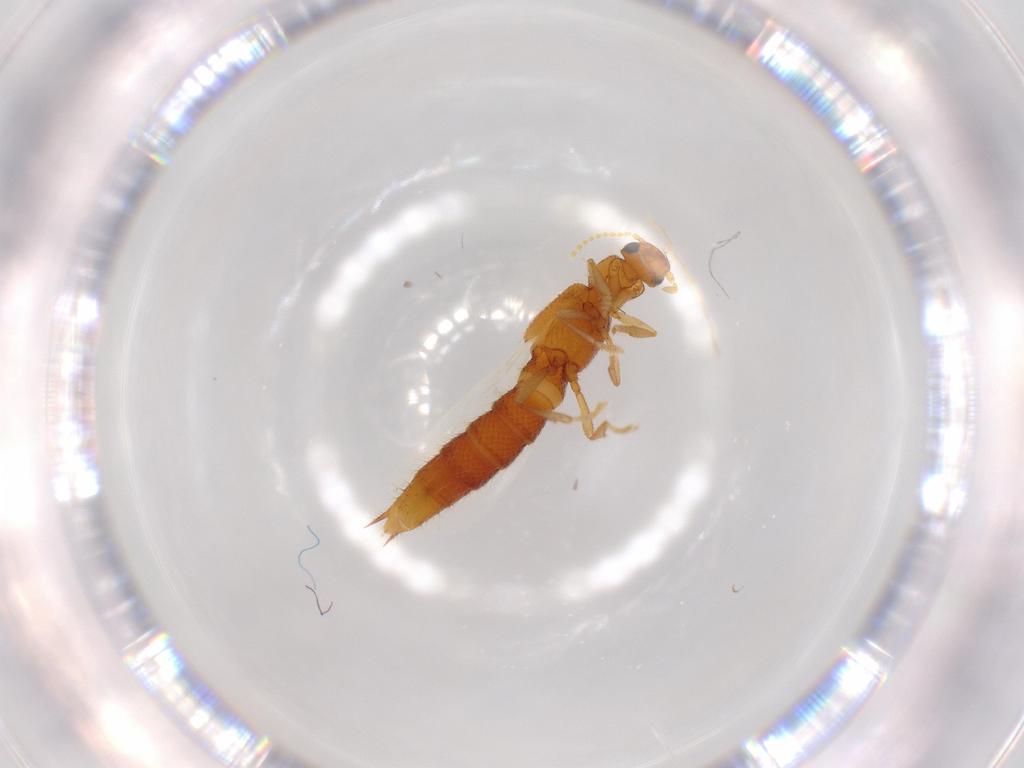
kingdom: Animalia
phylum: Arthropoda
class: Insecta
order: Coleoptera
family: Staphylinidae
